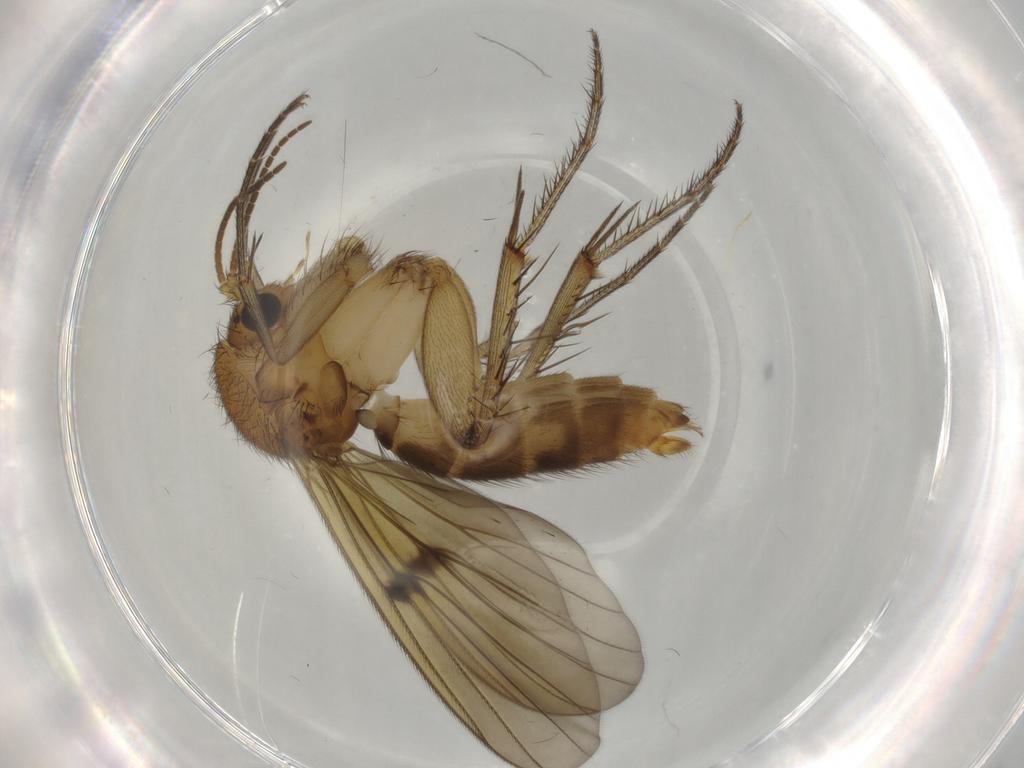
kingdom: Animalia
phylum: Arthropoda
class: Insecta
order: Diptera
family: Mycetophilidae
